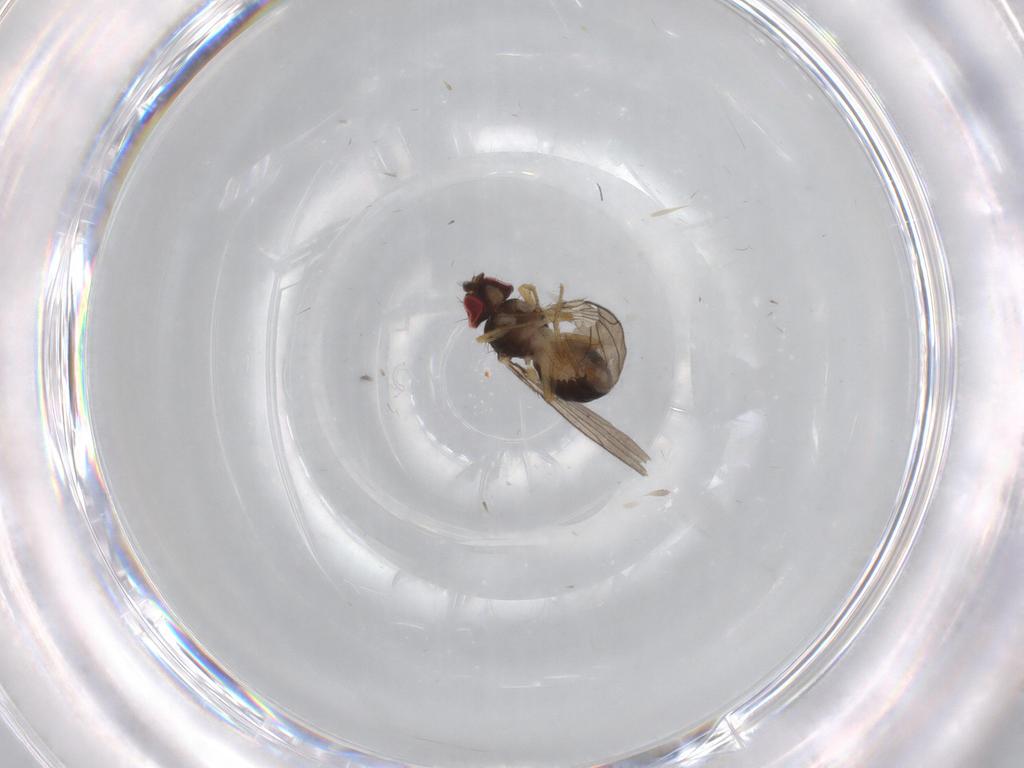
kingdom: Animalia
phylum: Arthropoda
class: Insecta
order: Diptera
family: Drosophilidae
